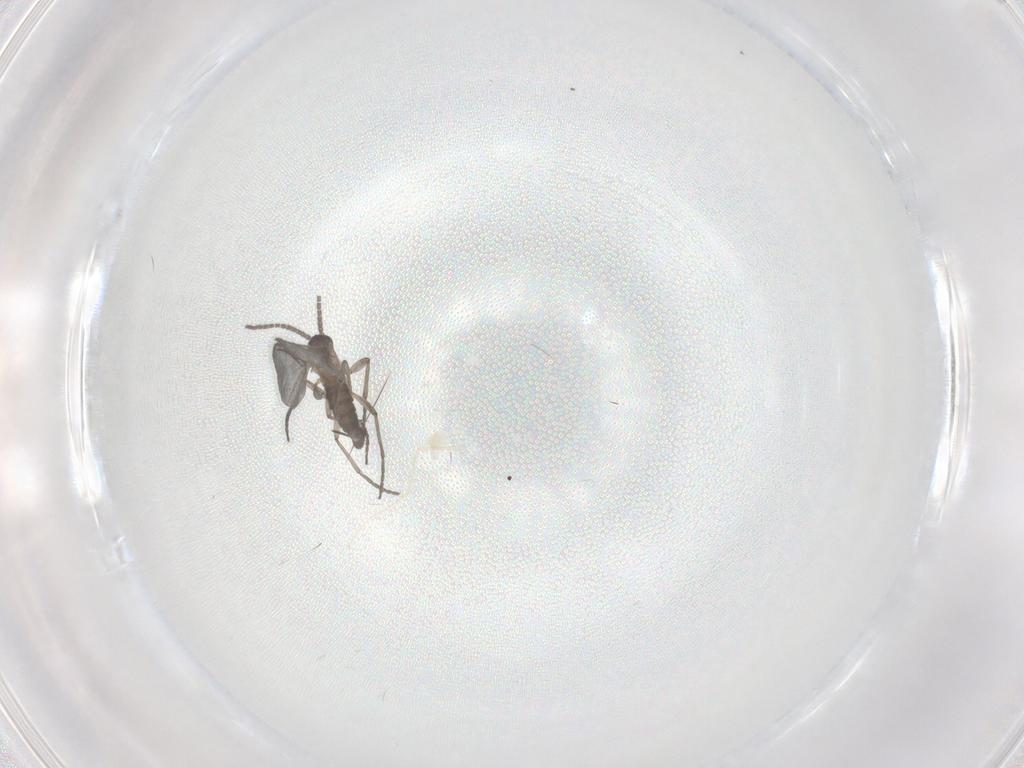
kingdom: Animalia
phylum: Arthropoda
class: Insecta
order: Diptera
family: Sciaridae
